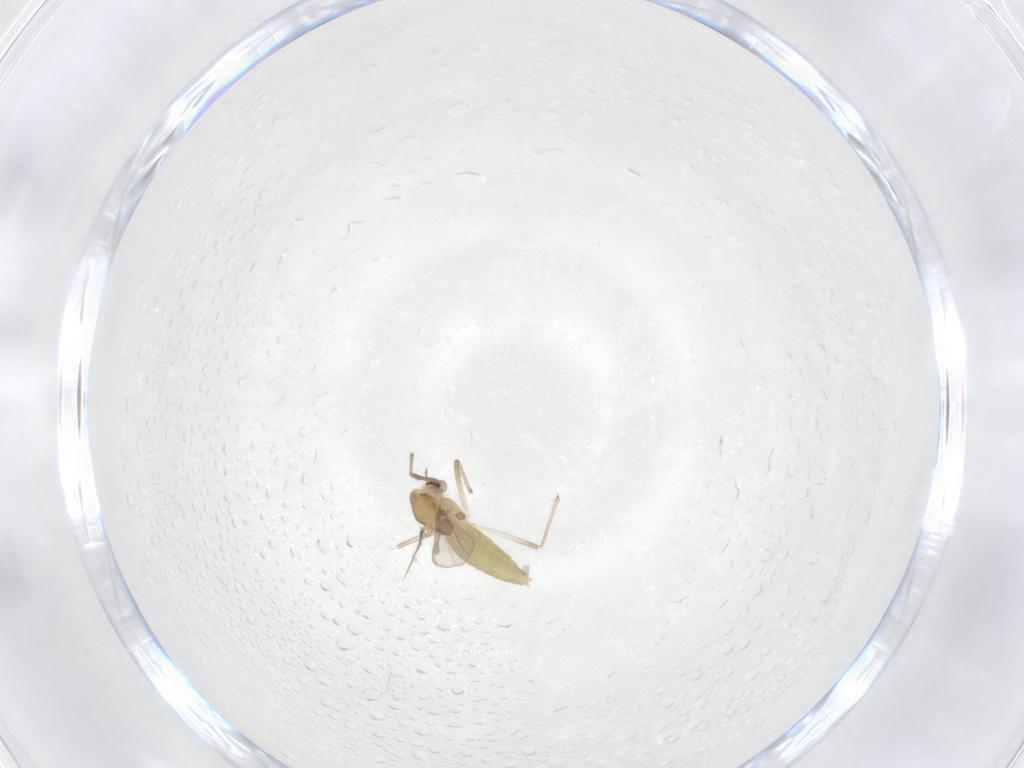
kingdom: Animalia
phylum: Arthropoda
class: Insecta
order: Diptera
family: Chironomidae
